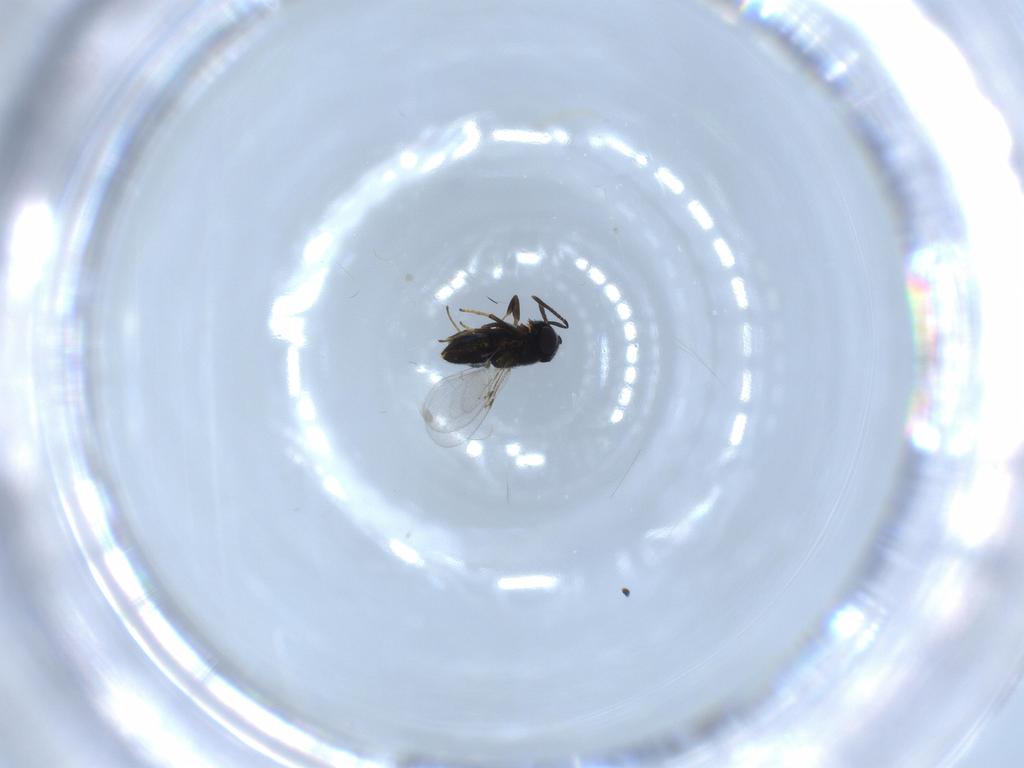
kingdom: Animalia
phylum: Arthropoda
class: Insecta
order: Hymenoptera
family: Encyrtidae
